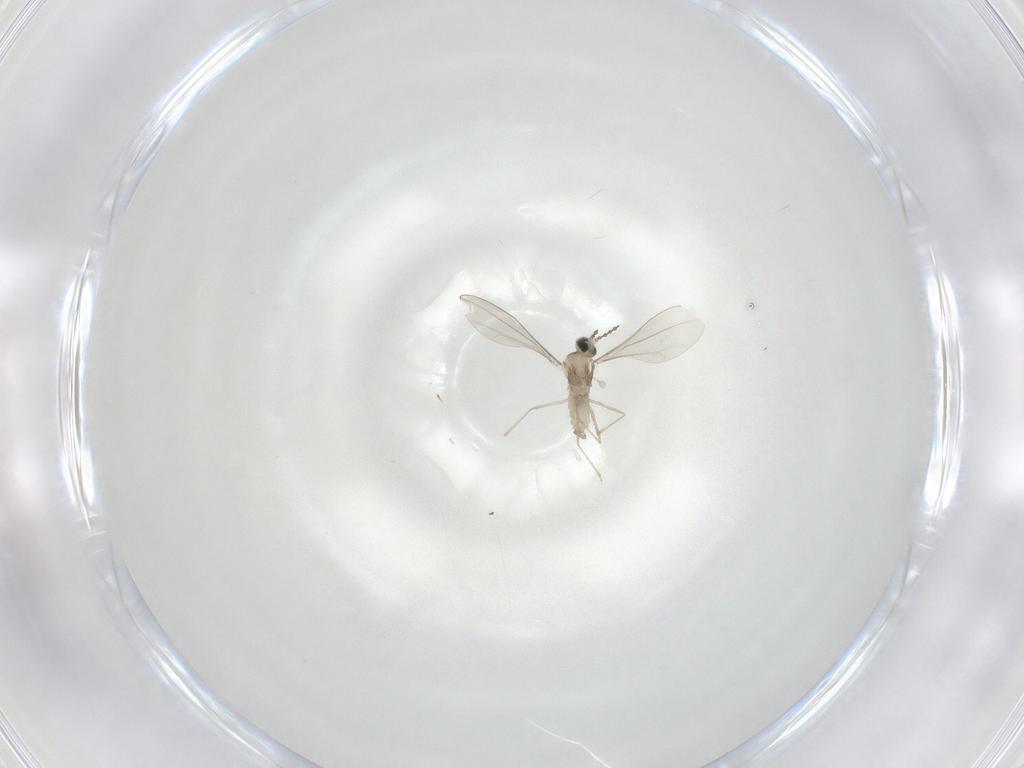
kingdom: Animalia
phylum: Arthropoda
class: Insecta
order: Diptera
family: Cecidomyiidae
